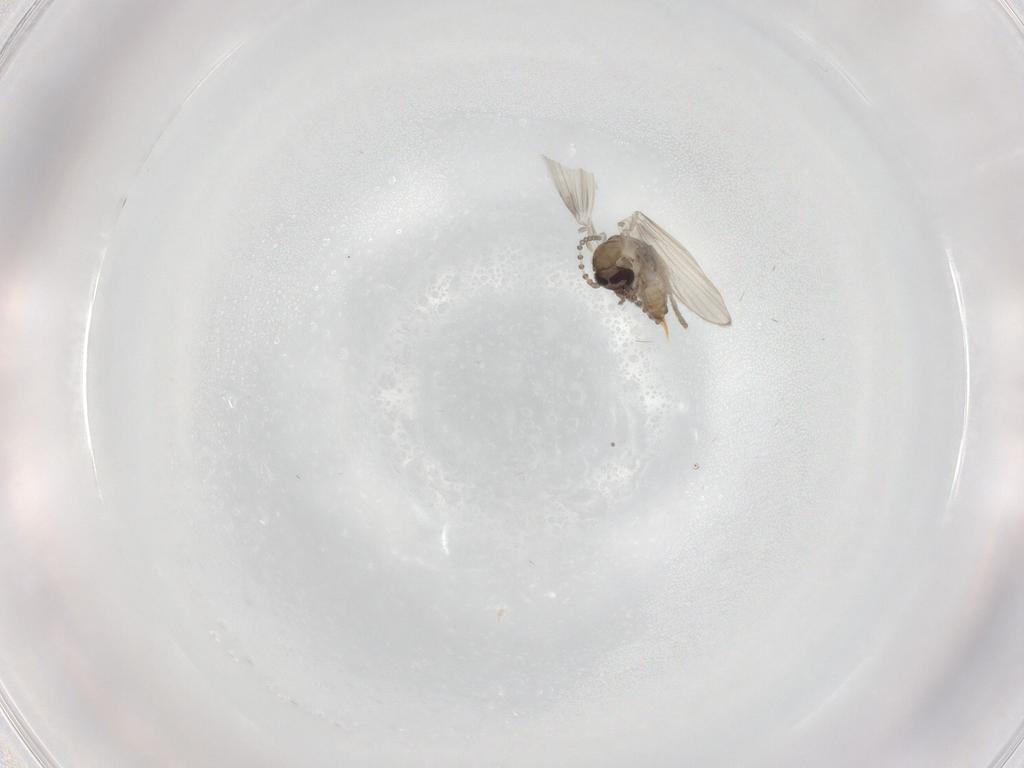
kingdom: Animalia
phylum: Arthropoda
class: Insecta
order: Diptera
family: Psychodidae
